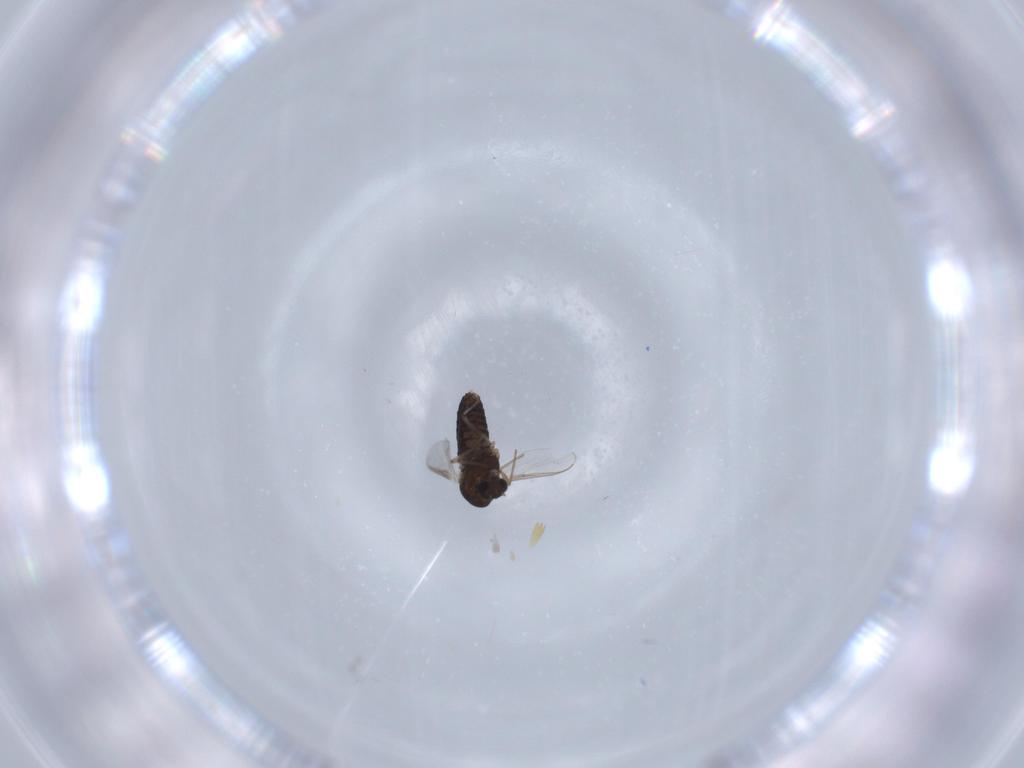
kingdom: Animalia
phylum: Arthropoda
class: Insecta
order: Diptera
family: Chironomidae
